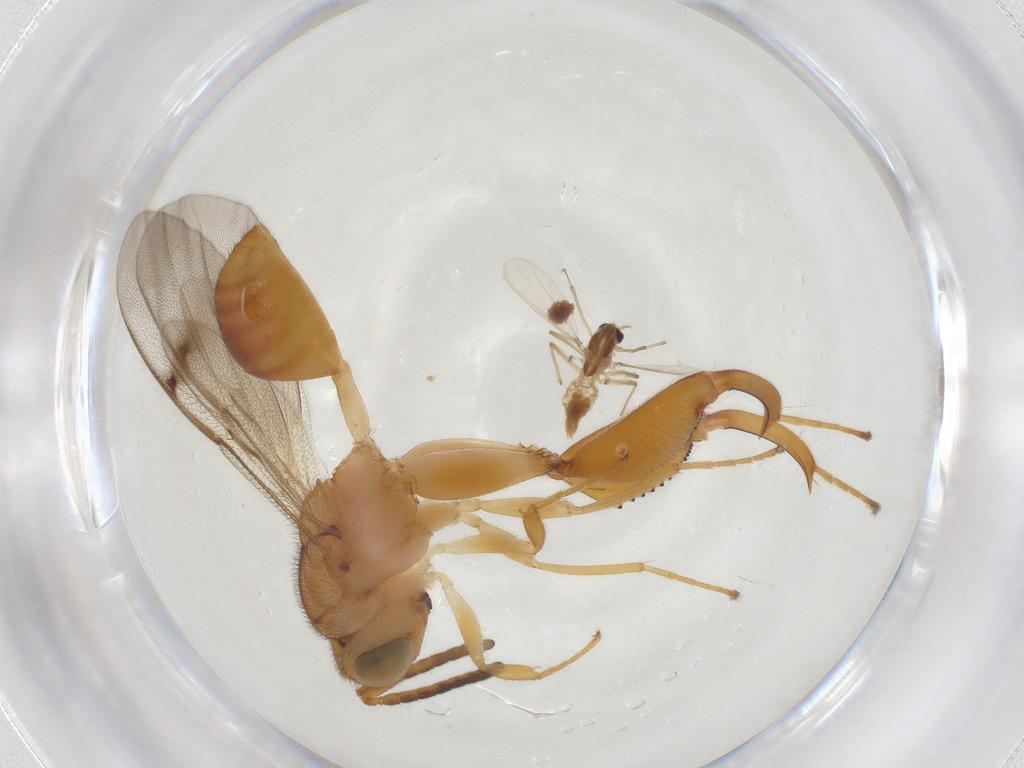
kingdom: Animalia
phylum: Arthropoda
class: Insecta
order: Hymenoptera
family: Chalcididae
